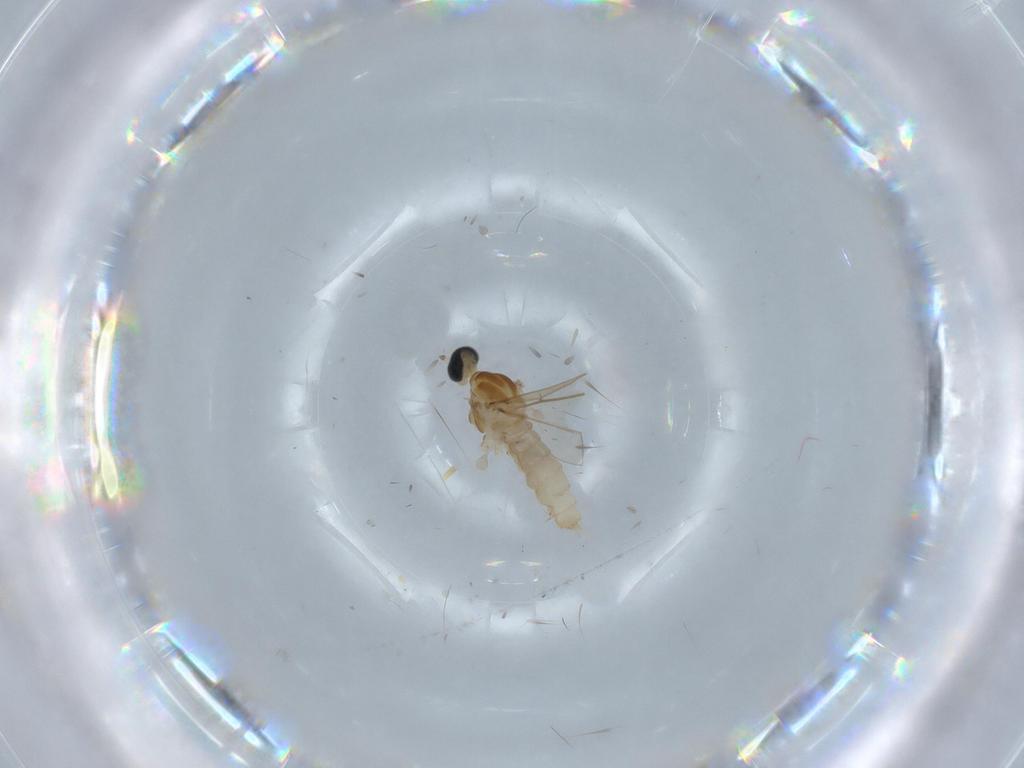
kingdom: Animalia
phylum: Arthropoda
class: Insecta
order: Diptera
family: Cecidomyiidae
